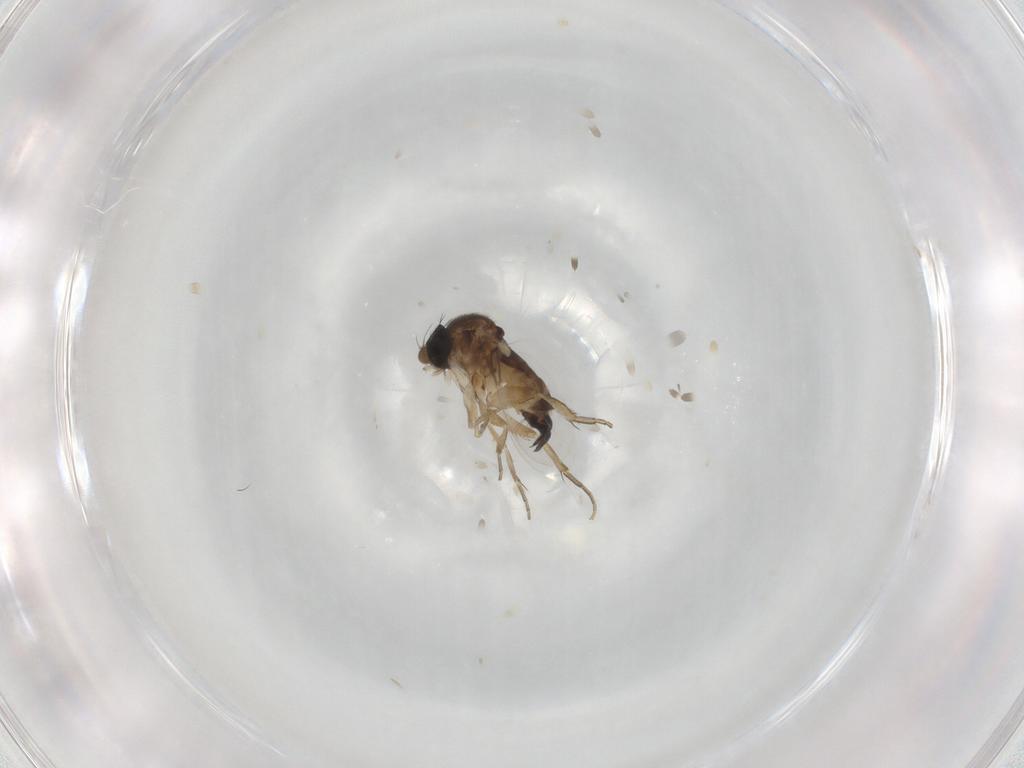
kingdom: Animalia
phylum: Arthropoda
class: Insecta
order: Diptera
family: Phoridae
